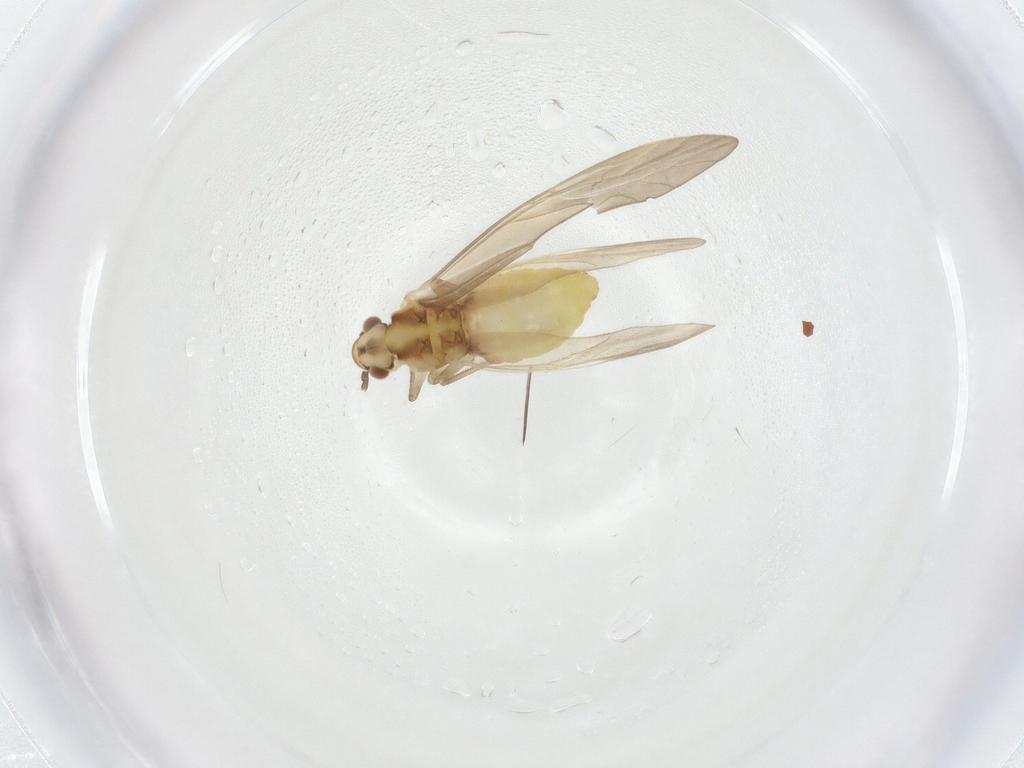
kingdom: Animalia
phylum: Arthropoda
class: Insecta
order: Psocodea
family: Caeciliusidae
